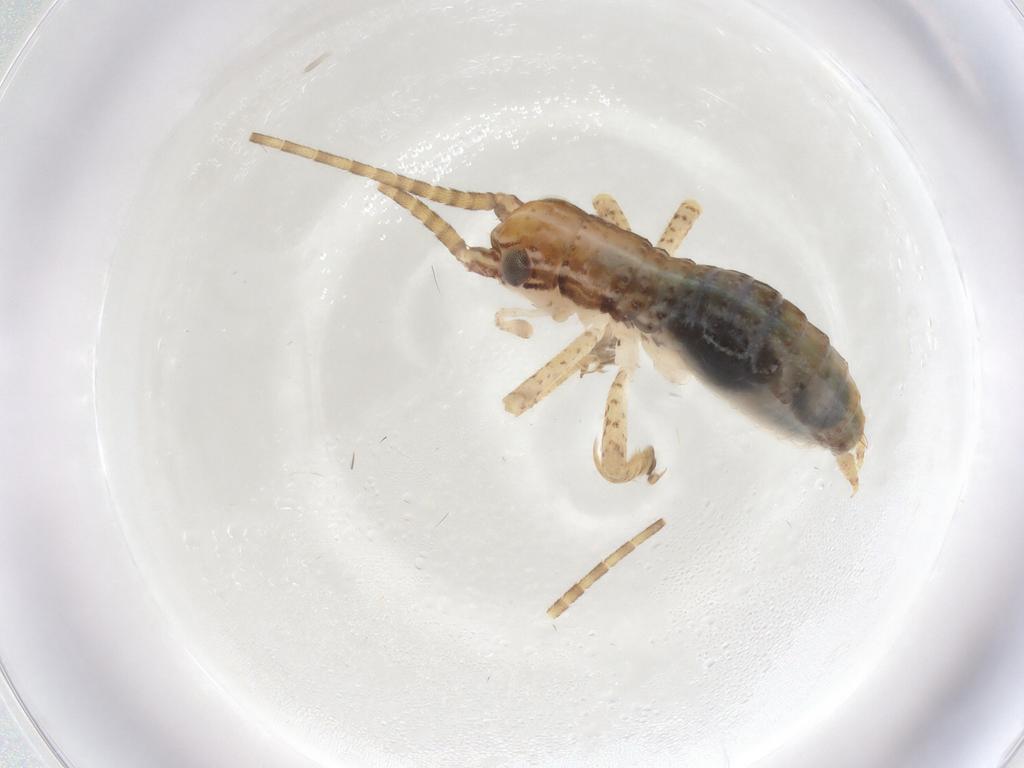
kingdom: Animalia
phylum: Arthropoda
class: Insecta
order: Orthoptera
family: Gryllidae
